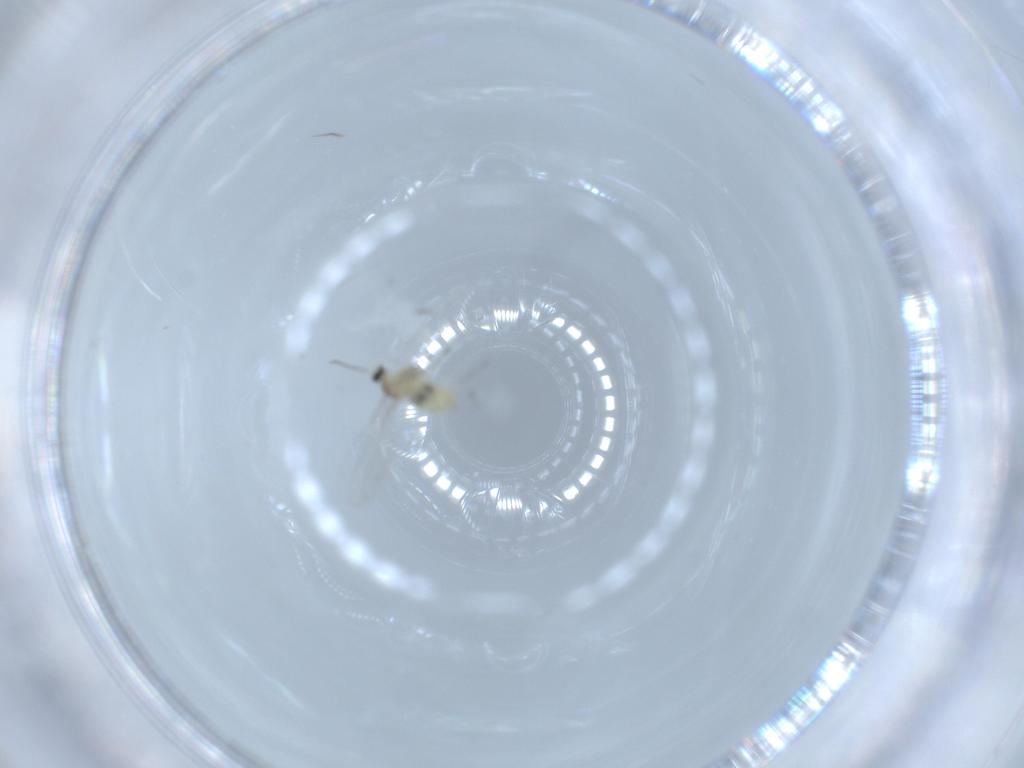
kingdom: Animalia
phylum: Arthropoda
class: Insecta
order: Diptera
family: Cecidomyiidae
